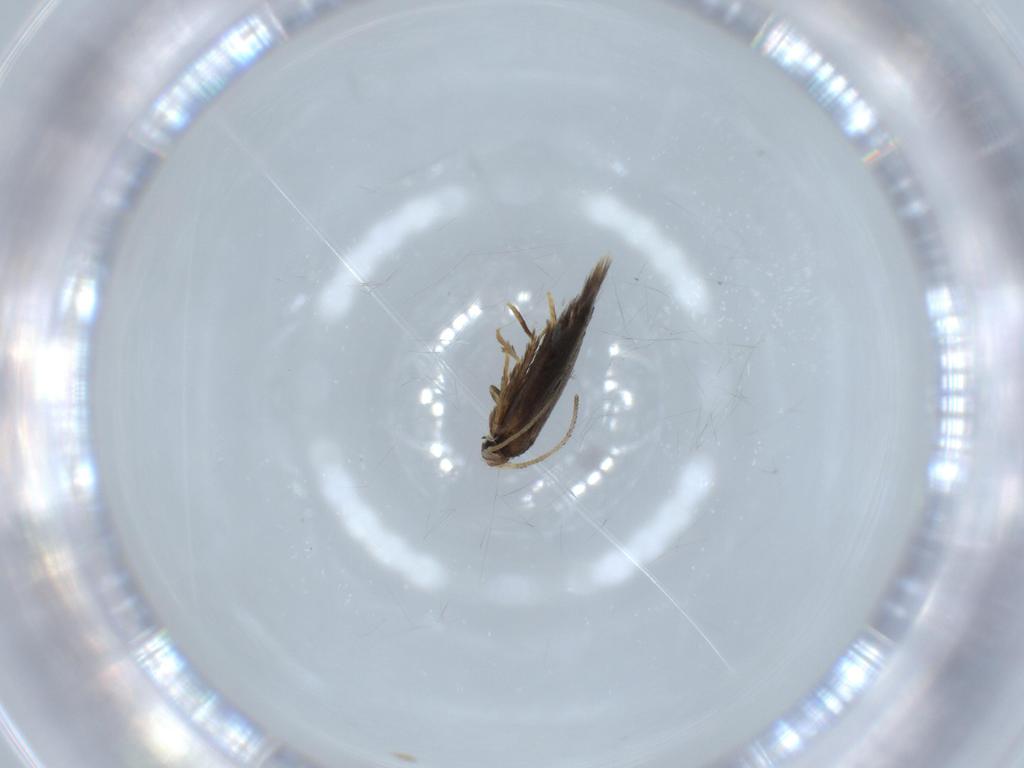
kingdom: Animalia
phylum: Arthropoda
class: Insecta
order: Lepidoptera
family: Nepticulidae
